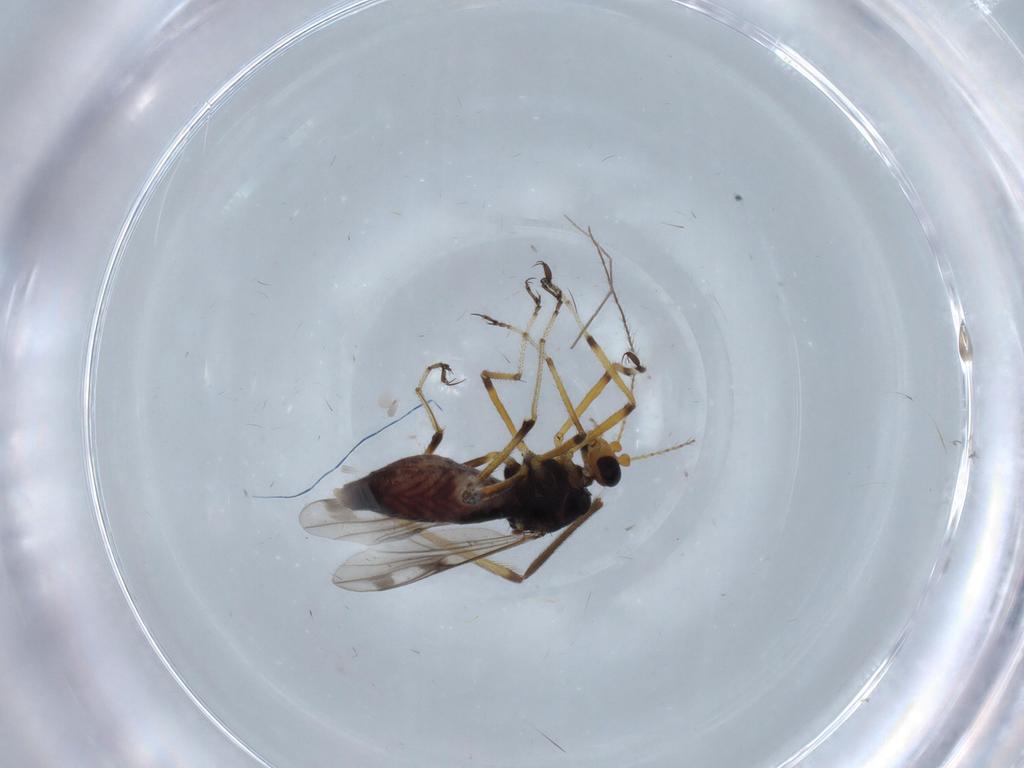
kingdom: Animalia
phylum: Arthropoda
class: Insecta
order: Diptera
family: Chironomidae
